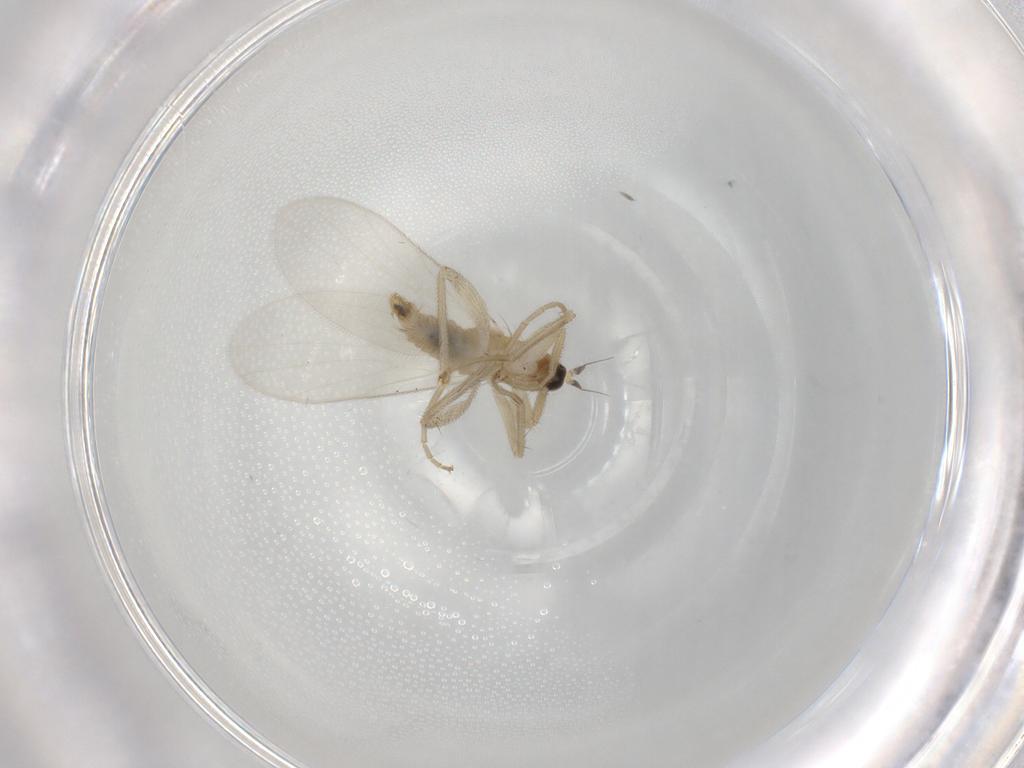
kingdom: Animalia
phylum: Arthropoda
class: Insecta
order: Diptera
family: Hybotidae
